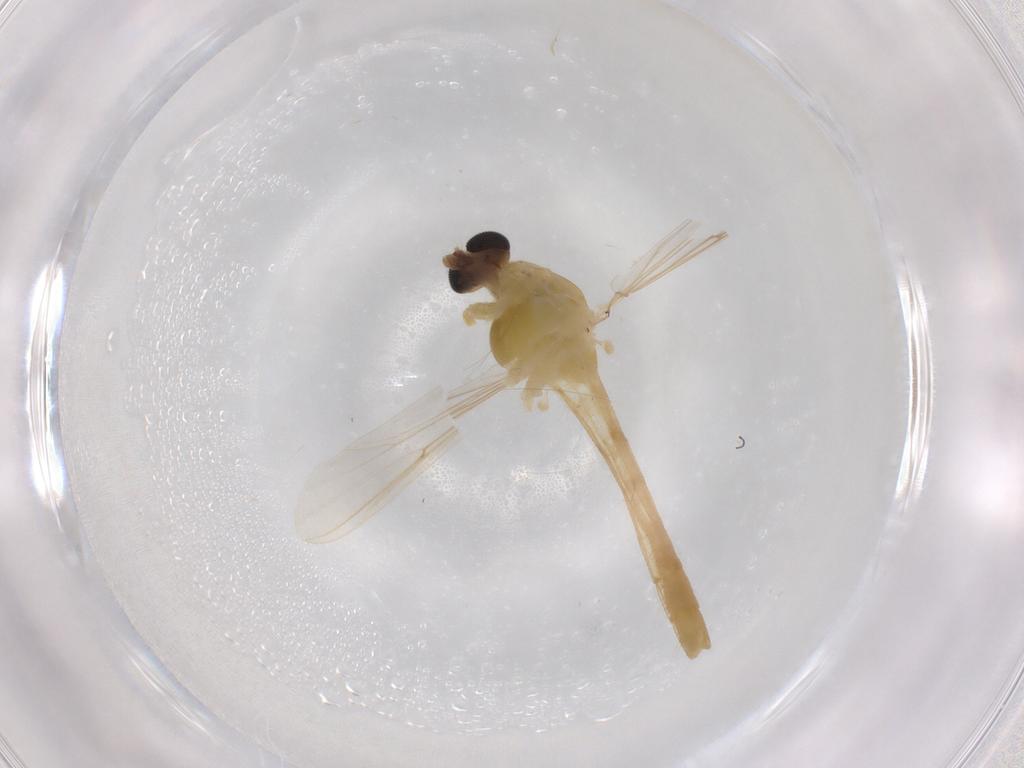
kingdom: Animalia
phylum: Arthropoda
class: Insecta
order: Diptera
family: Chironomidae
